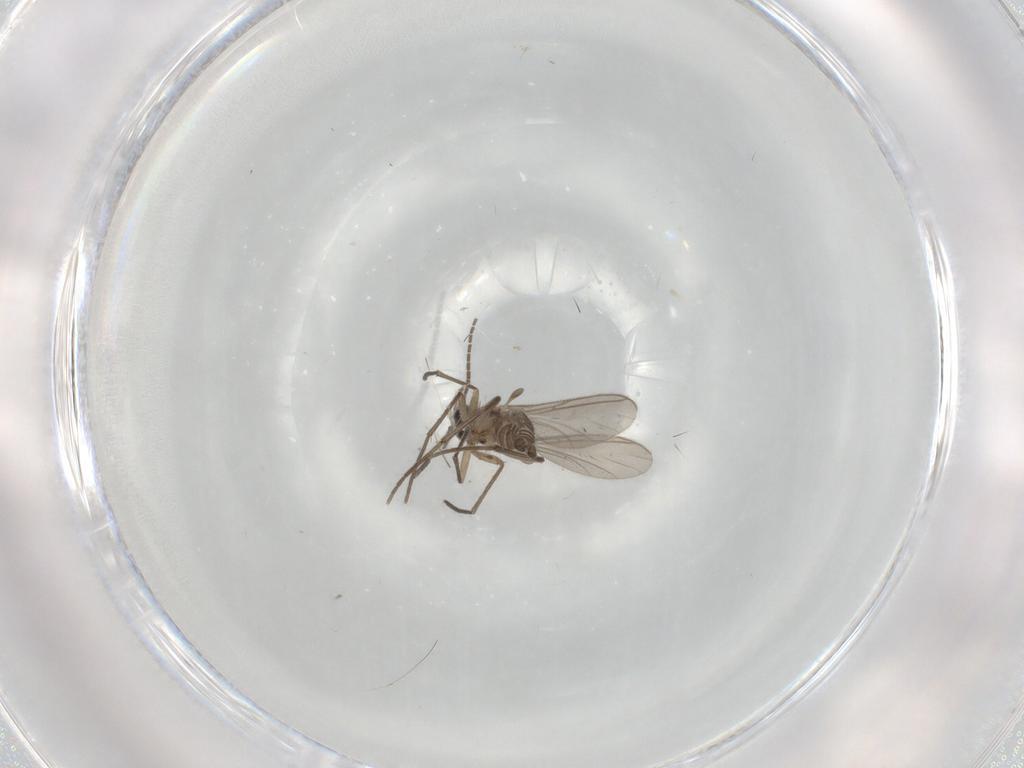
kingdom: Animalia
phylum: Arthropoda
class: Insecta
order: Diptera
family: Keroplatidae
